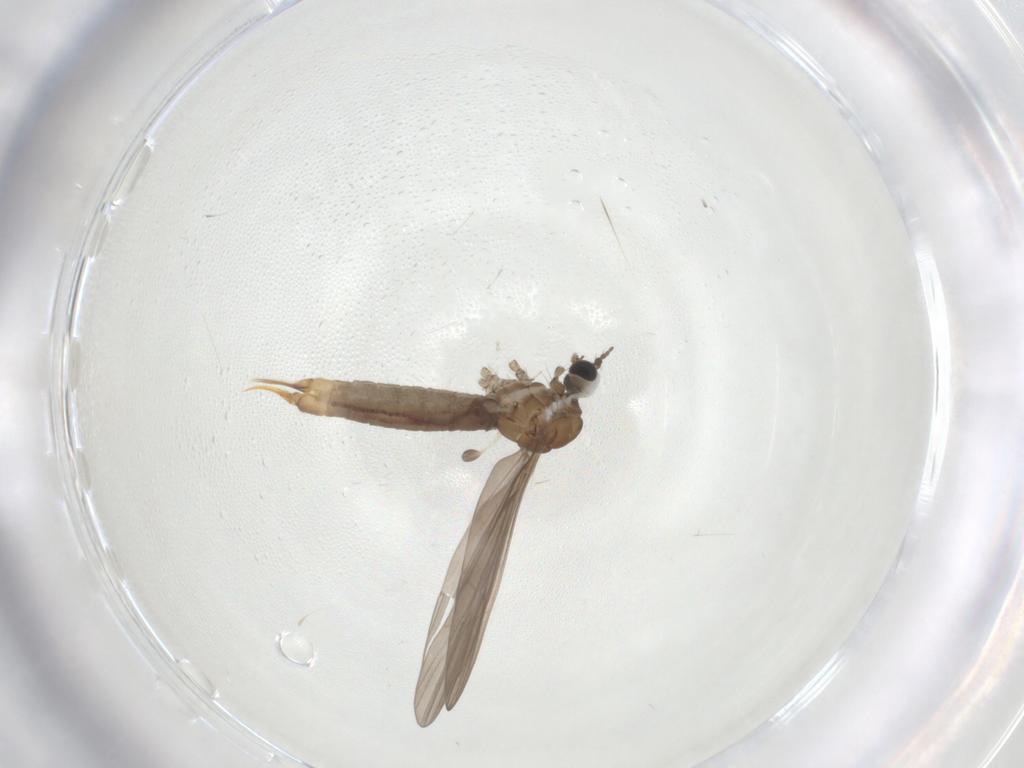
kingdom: Animalia
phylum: Arthropoda
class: Insecta
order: Diptera
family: Limoniidae
